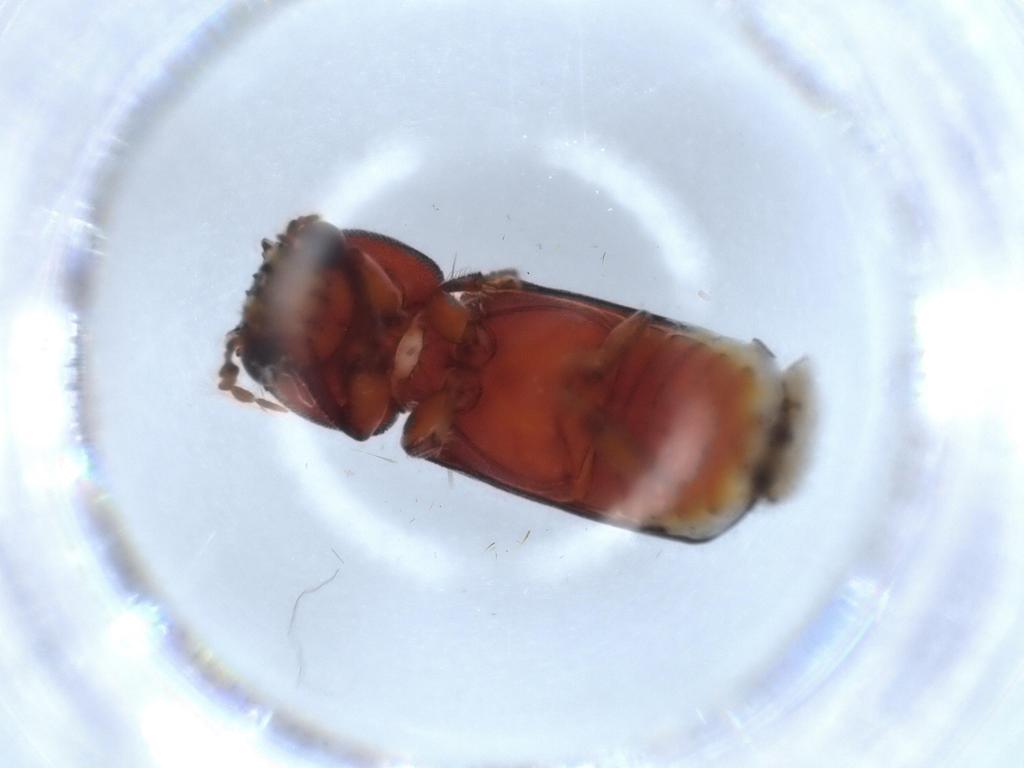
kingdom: Animalia
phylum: Arthropoda
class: Insecta
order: Coleoptera
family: Bostrichidae
